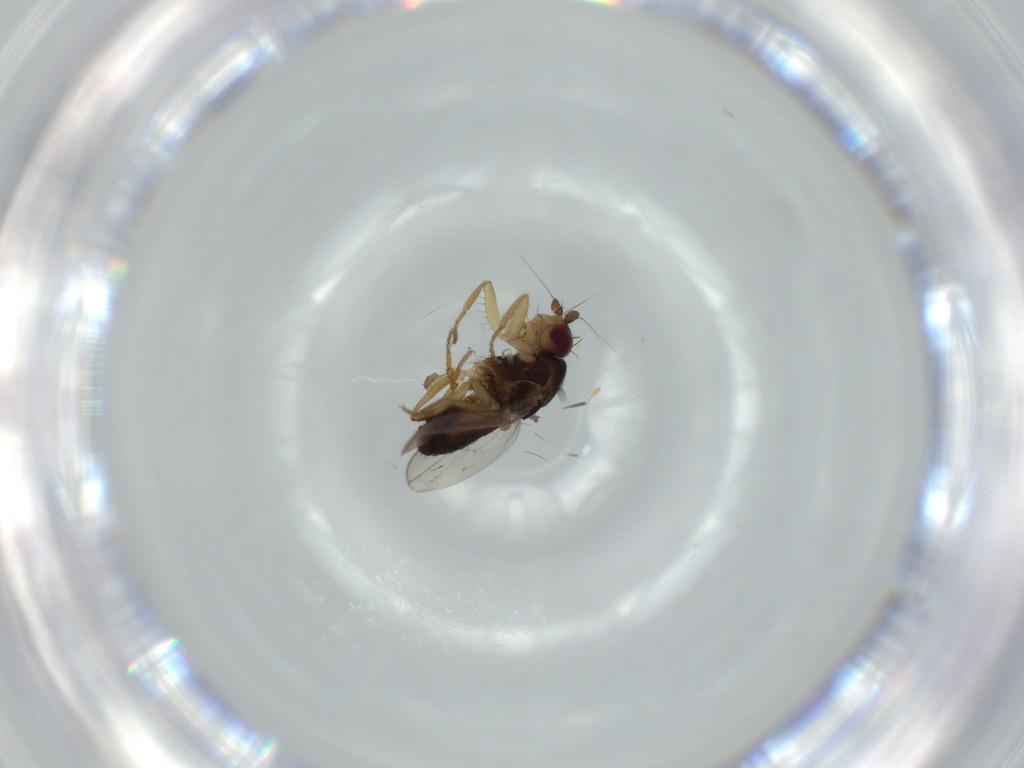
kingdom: Animalia
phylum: Arthropoda
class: Insecta
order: Diptera
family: Sphaeroceridae
